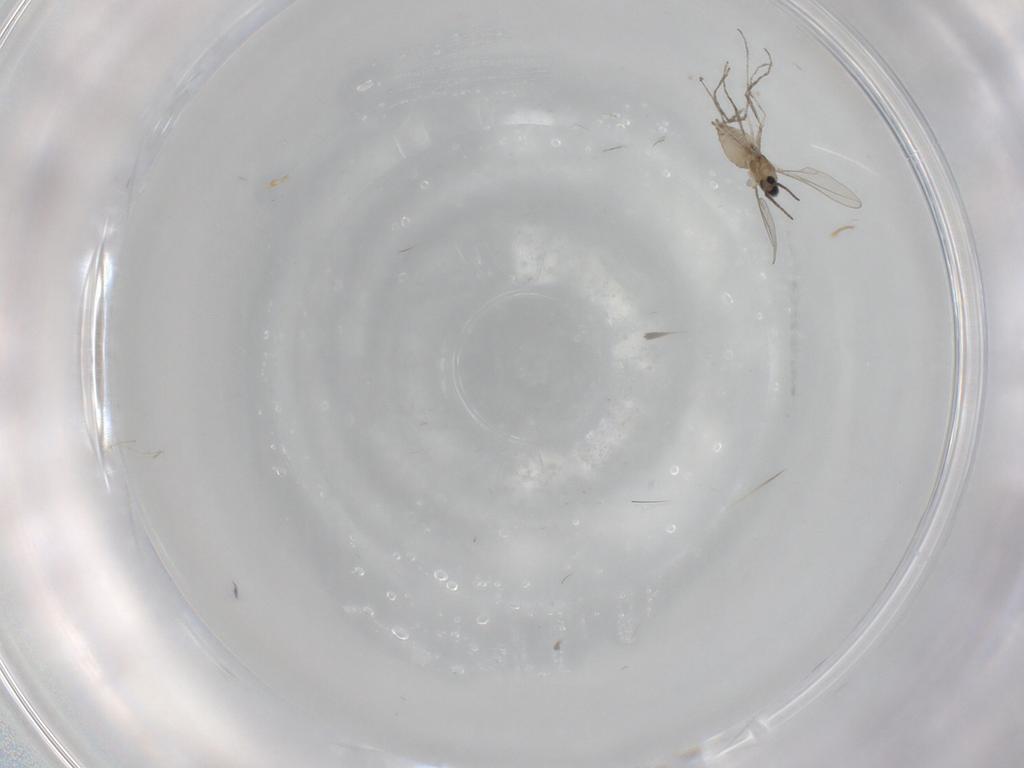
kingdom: Animalia
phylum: Arthropoda
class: Insecta
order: Diptera
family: Cecidomyiidae
